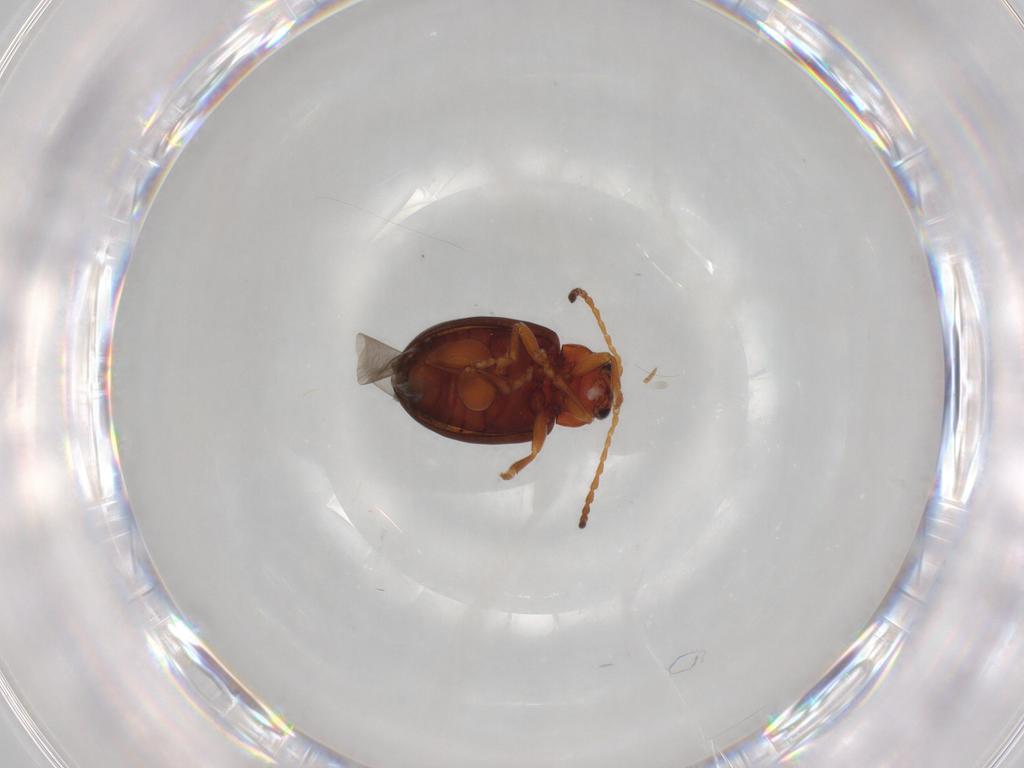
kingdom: Animalia
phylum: Arthropoda
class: Insecta
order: Coleoptera
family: Chrysomelidae
